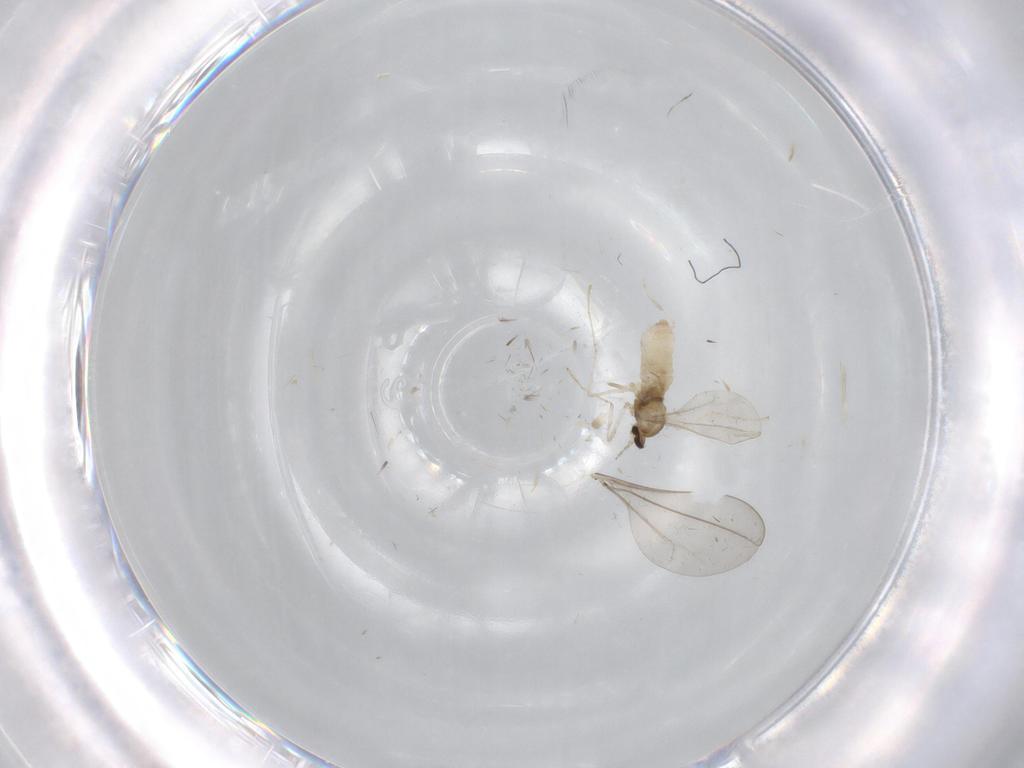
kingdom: Animalia
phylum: Arthropoda
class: Insecta
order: Diptera
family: Cecidomyiidae
